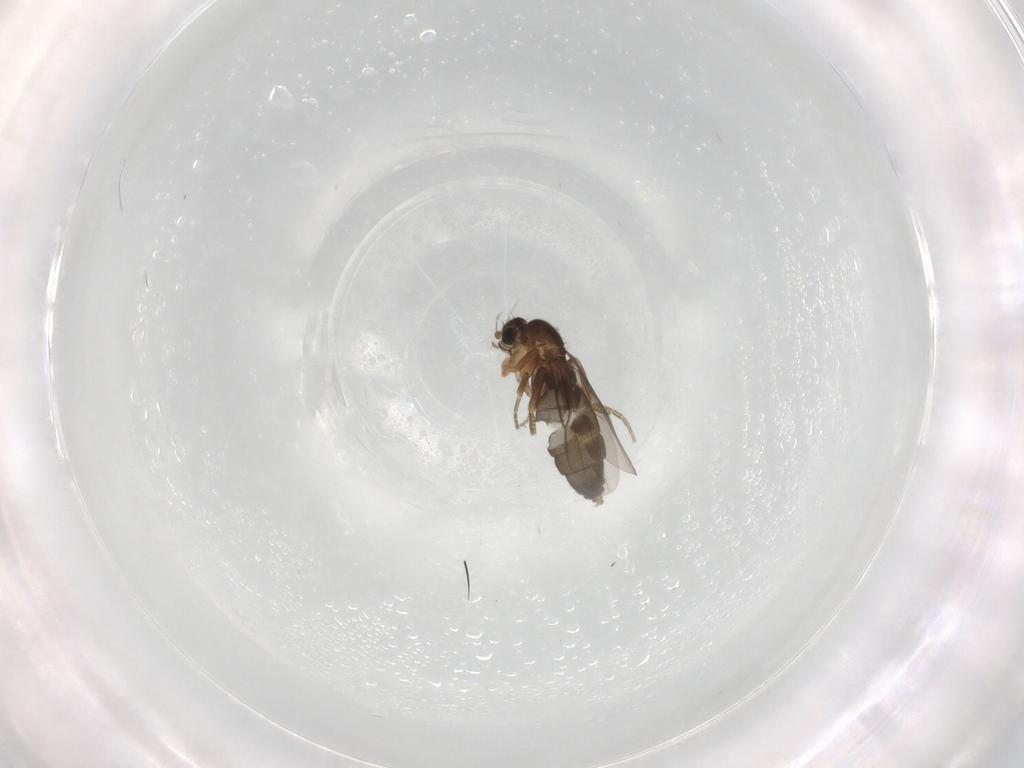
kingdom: Animalia
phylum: Arthropoda
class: Insecta
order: Diptera
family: Phoridae
